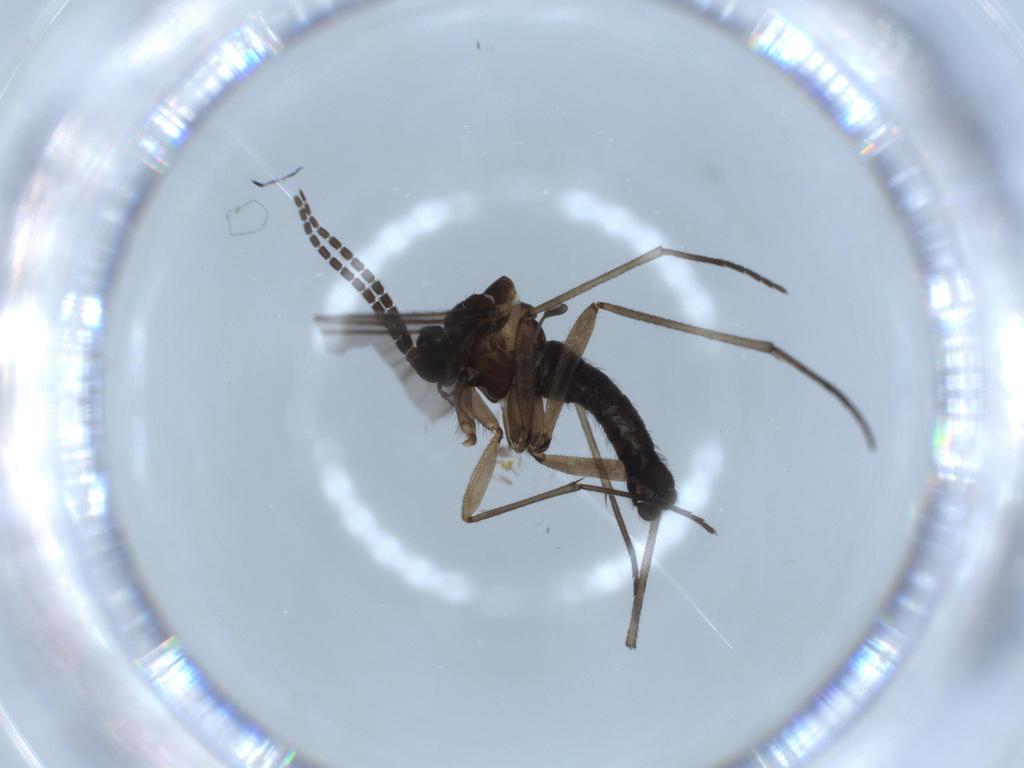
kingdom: Animalia
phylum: Arthropoda
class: Insecta
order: Diptera
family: Sciaridae
